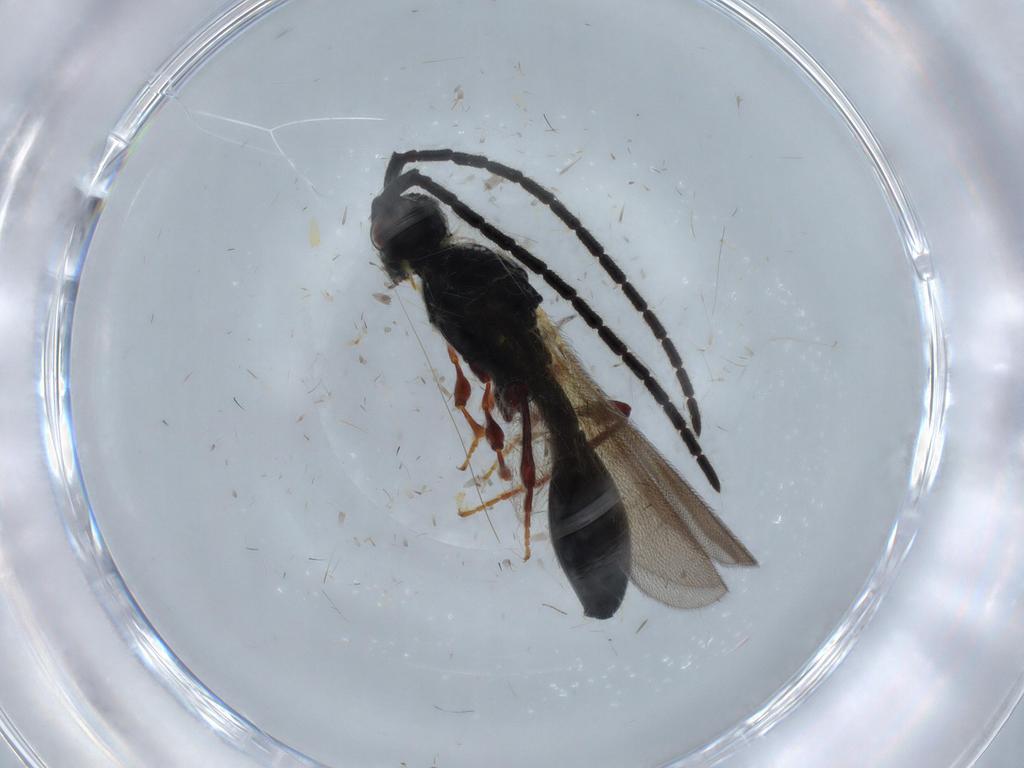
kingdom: Animalia
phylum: Arthropoda
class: Insecta
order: Hymenoptera
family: Diapriidae
